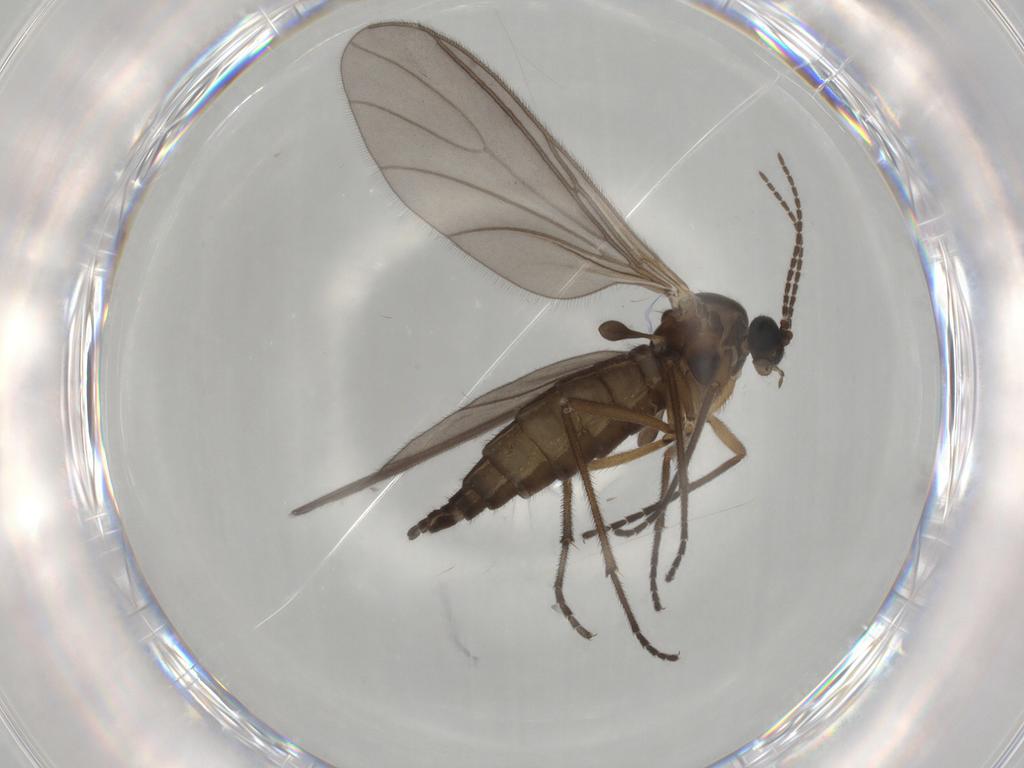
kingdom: Animalia
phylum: Arthropoda
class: Insecta
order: Diptera
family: Sciaridae
